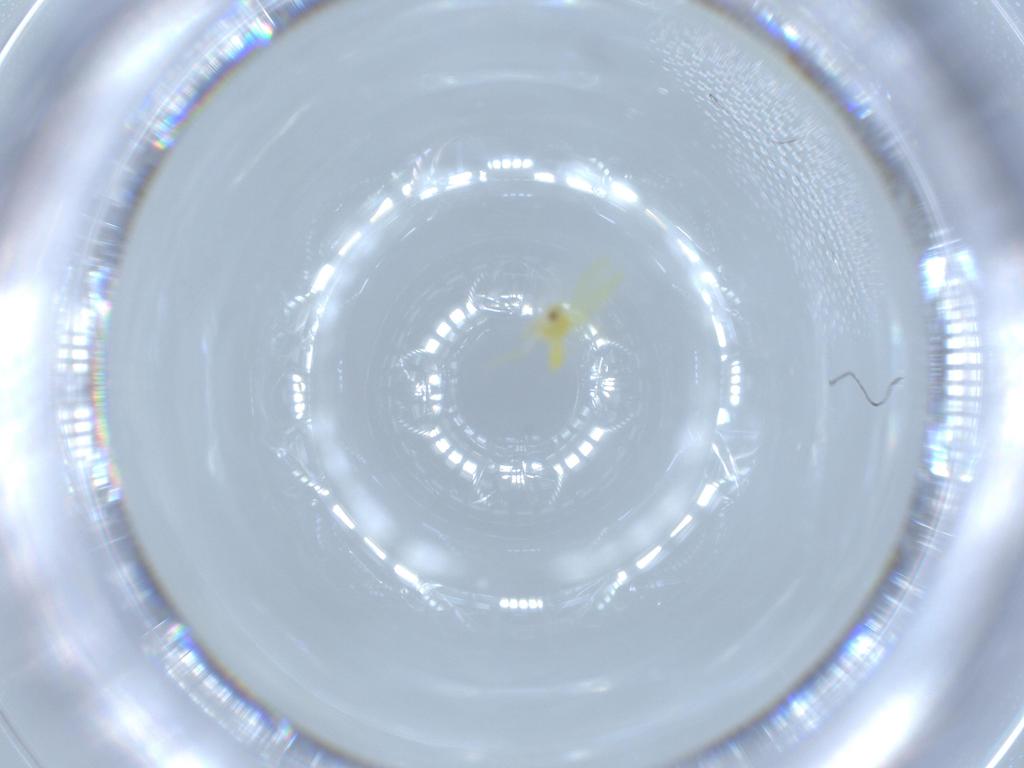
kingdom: Animalia
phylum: Arthropoda
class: Insecta
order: Hemiptera
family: Aleyrodidae
